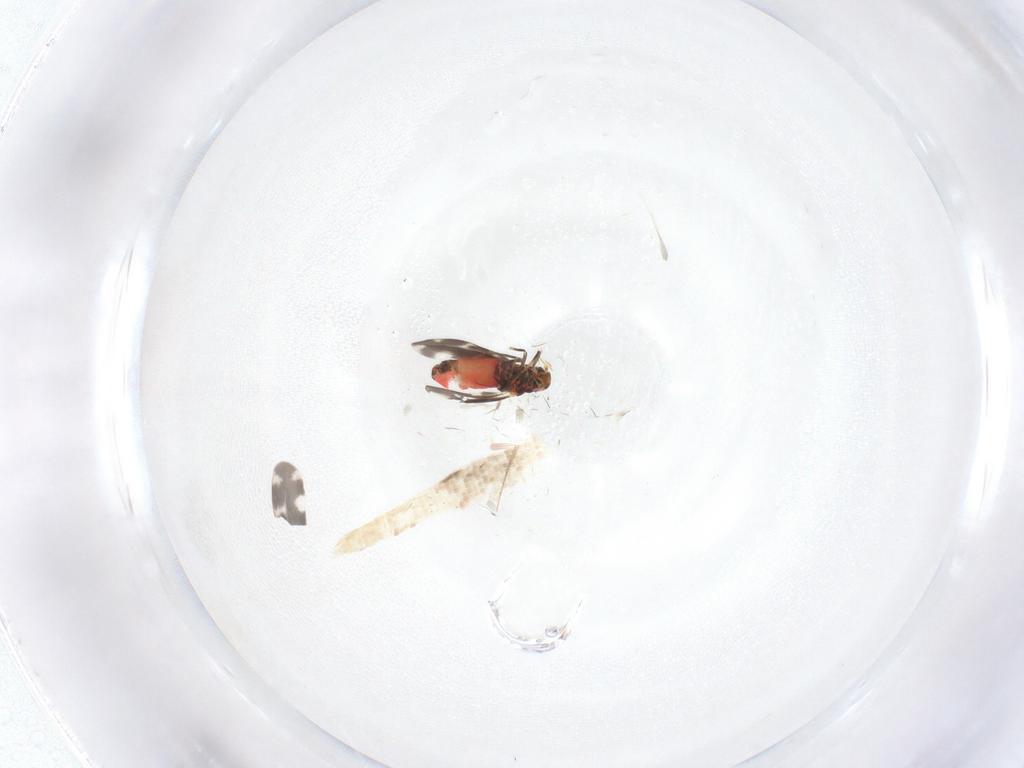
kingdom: Animalia
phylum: Arthropoda
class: Insecta
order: Hemiptera
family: Aleyrodidae
